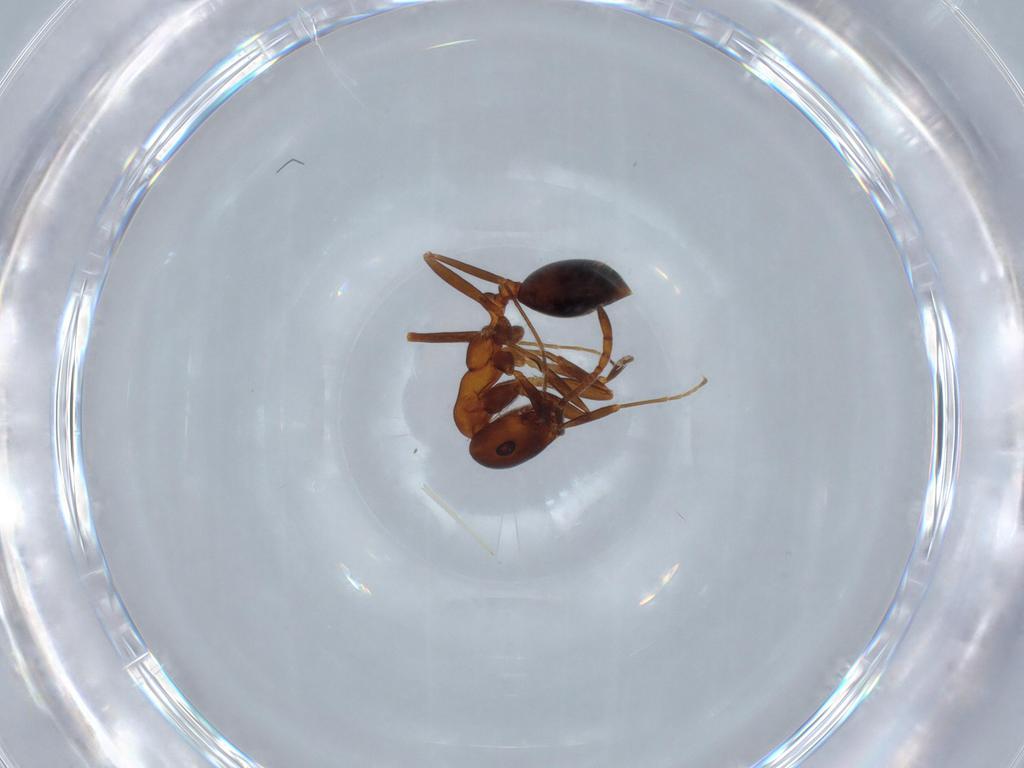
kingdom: Animalia
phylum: Arthropoda
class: Insecta
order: Hymenoptera
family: Formicidae
